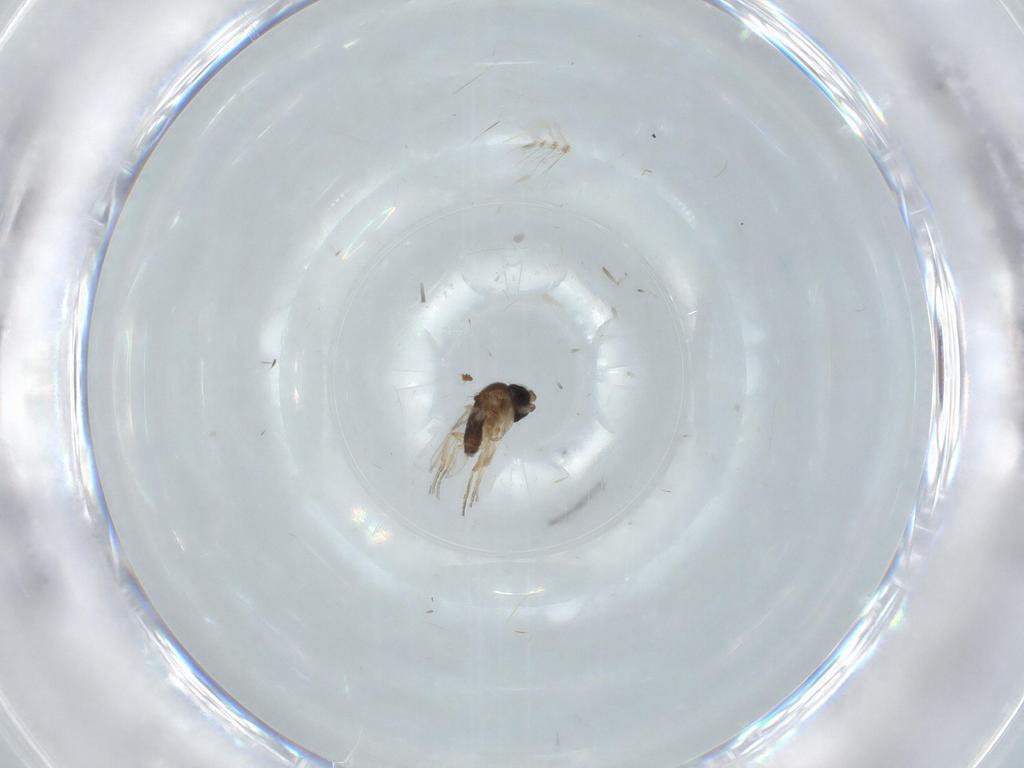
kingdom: Animalia
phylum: Arthropoda
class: Insecta
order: Diptera
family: Phoridae
